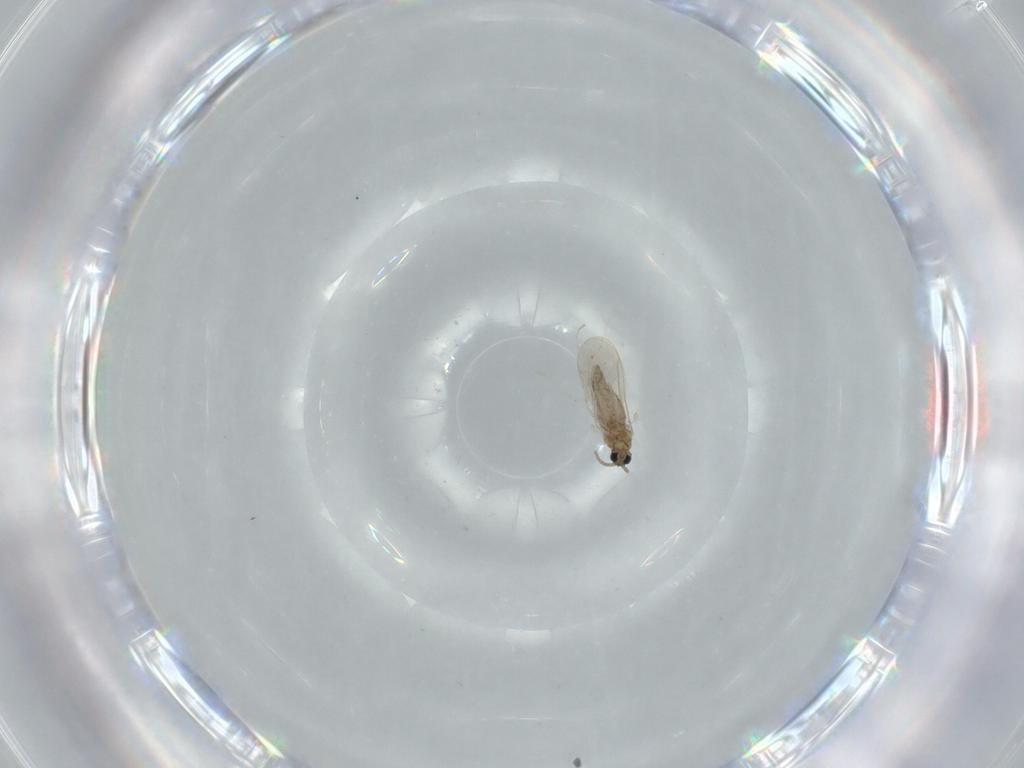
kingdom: Animalia
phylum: Arthropoda
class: Insecta
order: Diptera
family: Cecidomyiidae
